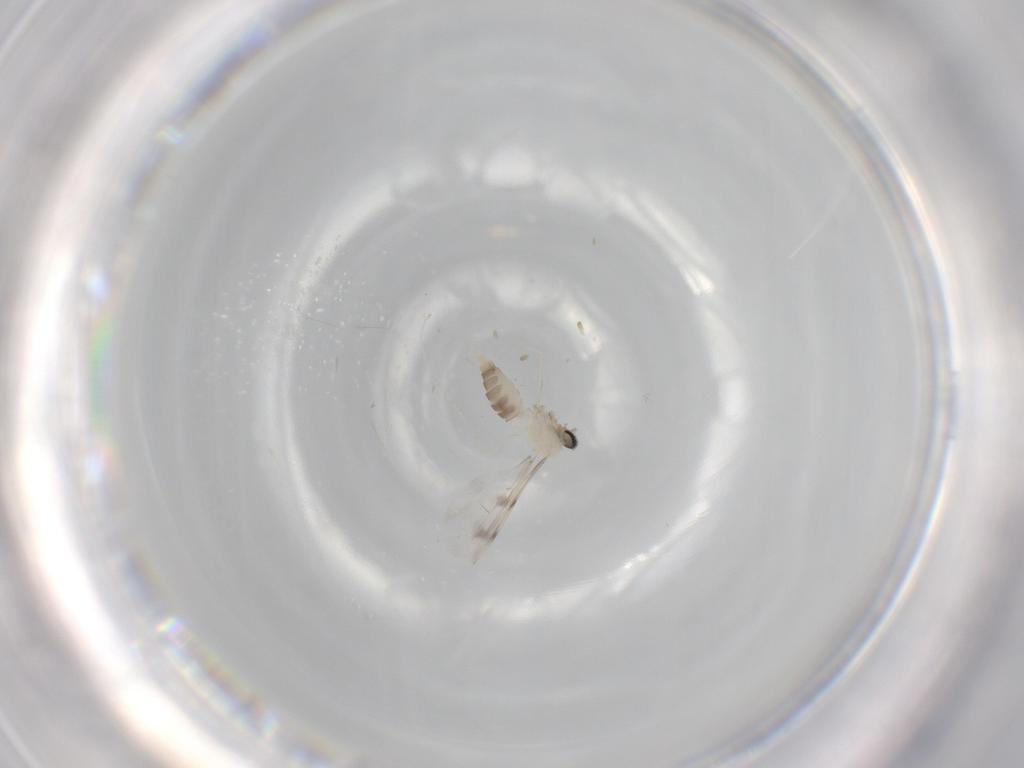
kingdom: Animalia
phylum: Arthropoda
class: Insecta
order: Diptera
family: Cecidomyiidae
